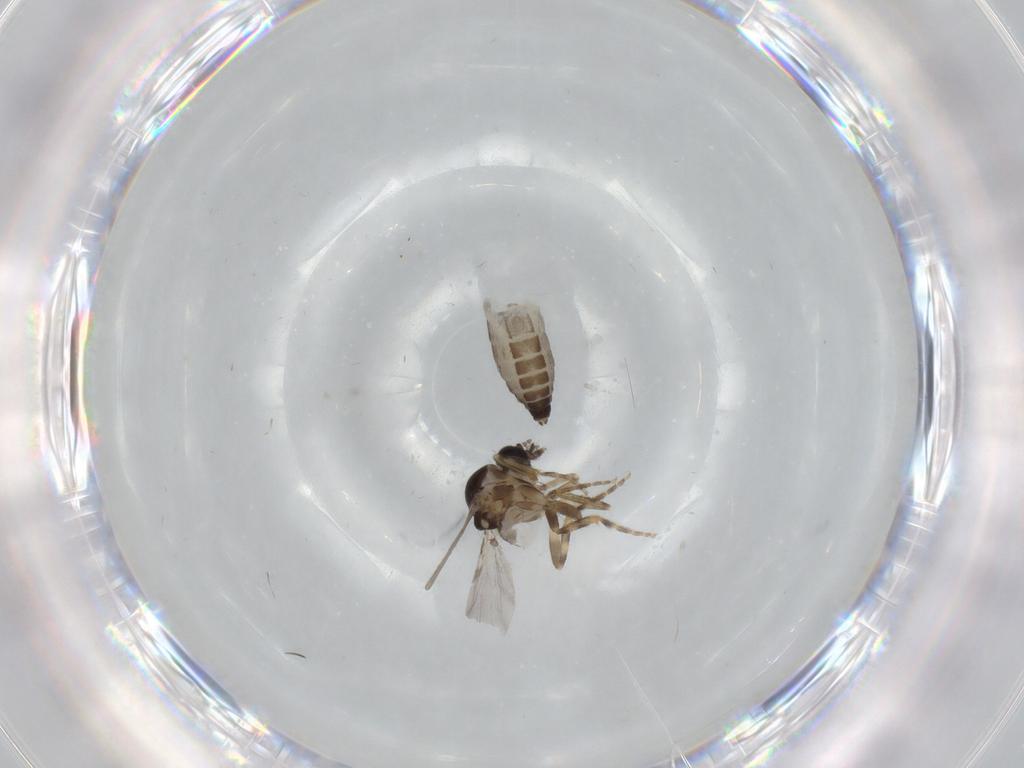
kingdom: Animalia
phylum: Arthropoda
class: Insecta
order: Diptera
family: Ceratopogonidae
